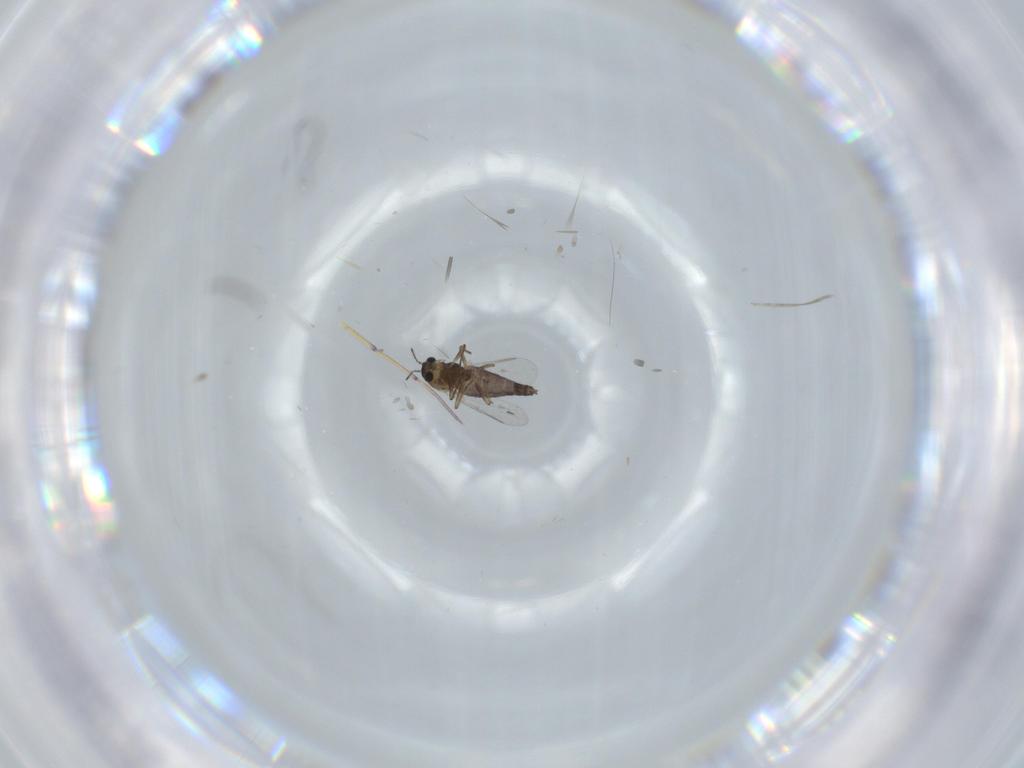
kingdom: Animalia
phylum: Arthropoda
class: Insecta
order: Diptera
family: Chironomidae
